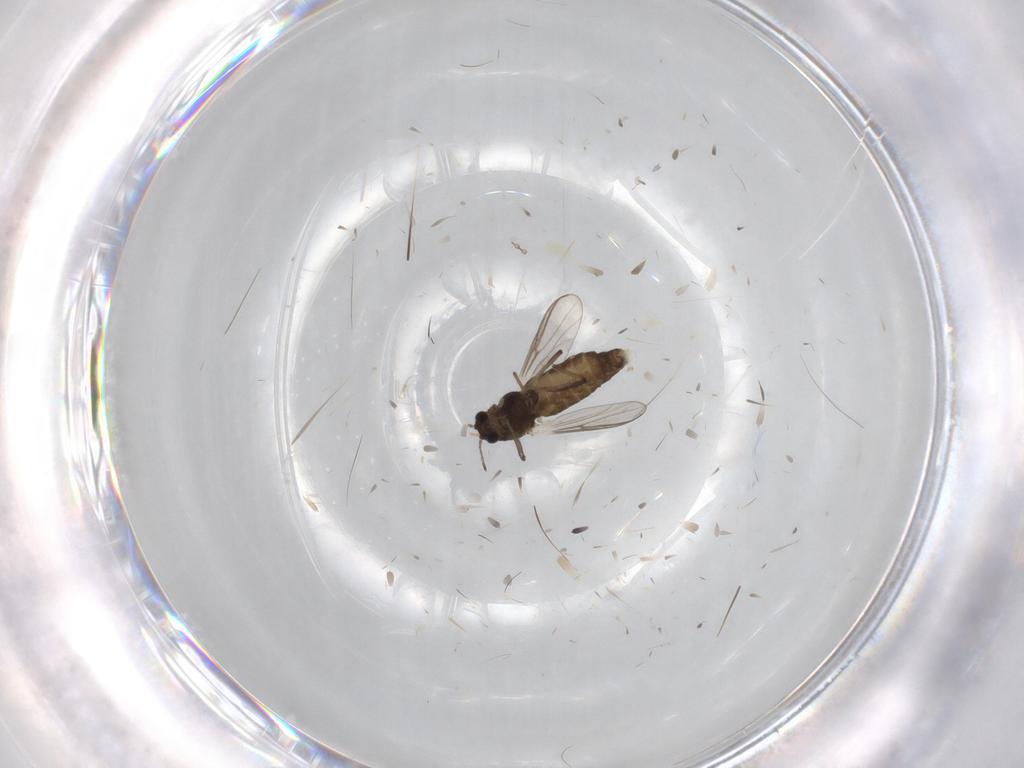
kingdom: Animalia
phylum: Arthropoda
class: Insecta
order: Diptera
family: Chironomidae
